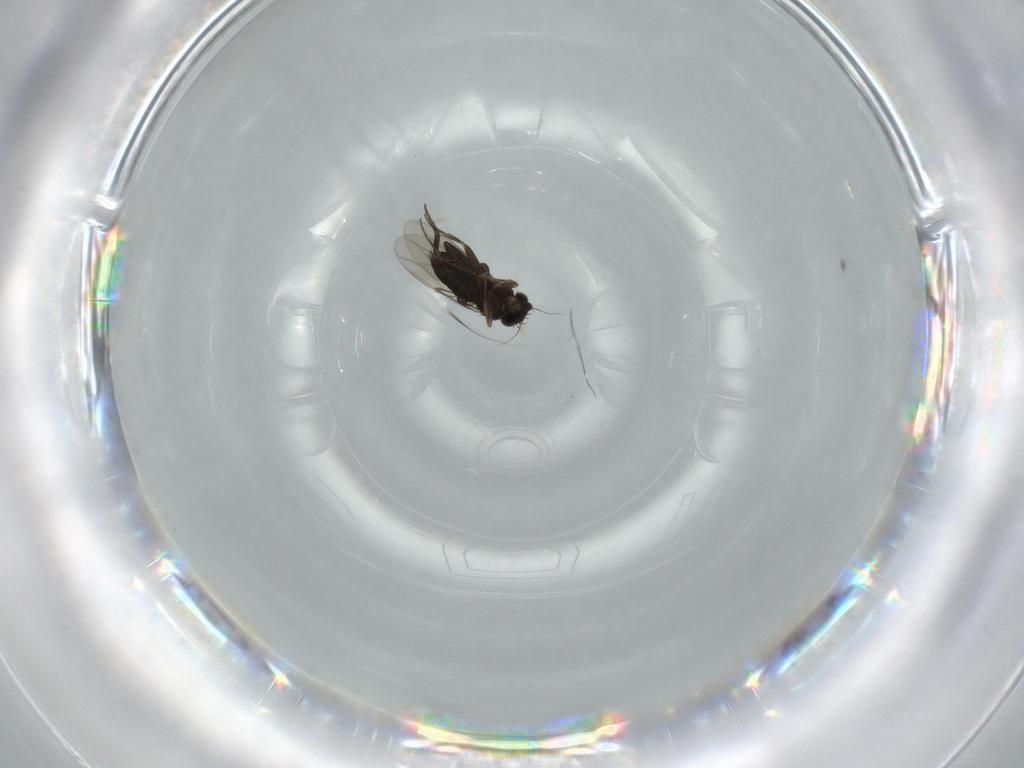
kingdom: Animalia
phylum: Arthropoda
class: Insecta
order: Diptera
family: Phoridae
